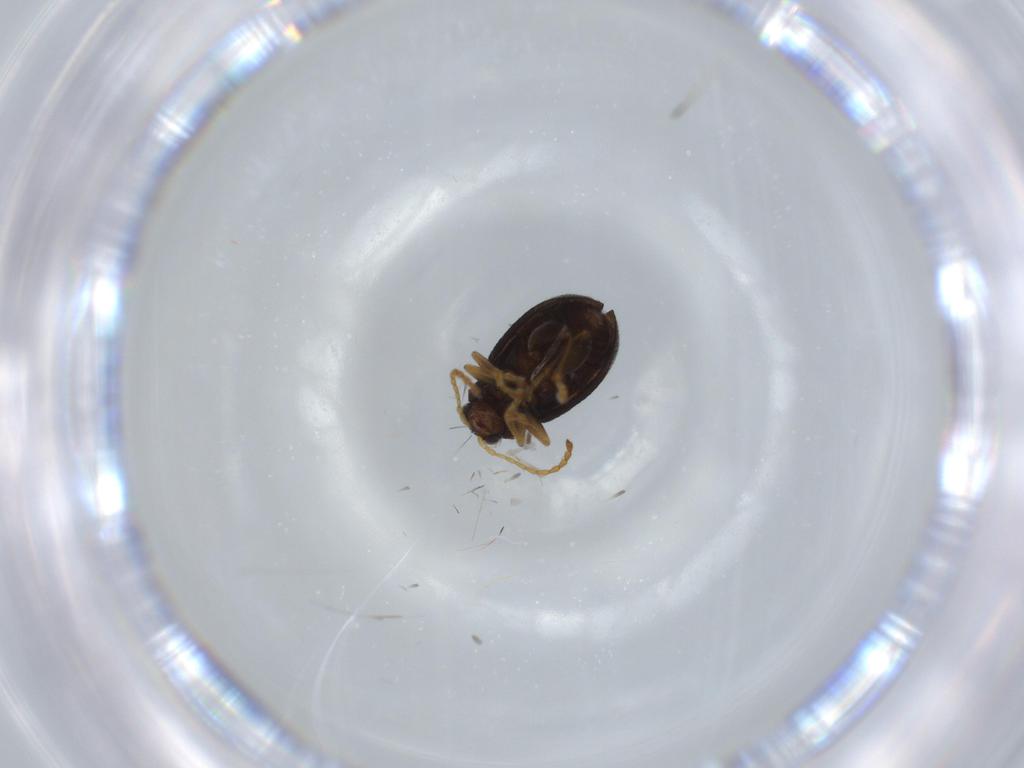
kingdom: Animalia
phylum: Arthropoda
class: Insecta
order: Coleoptera
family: Chrysomelidae
